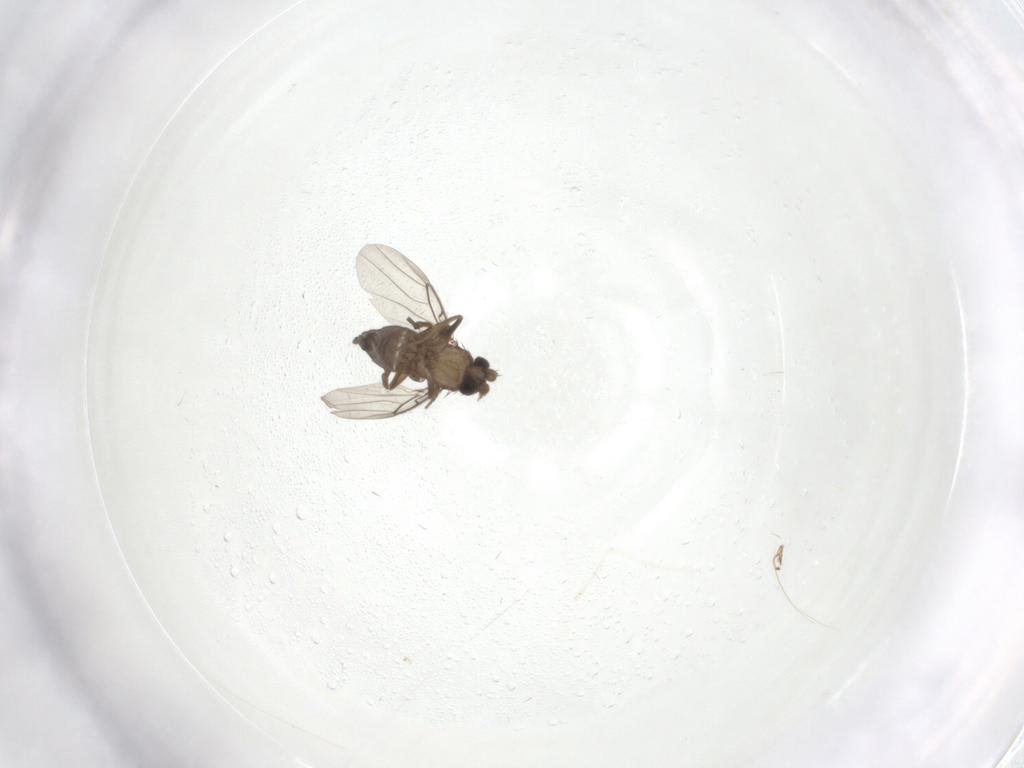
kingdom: Animalia
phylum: Arthropoda
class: Insecta
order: Diptera
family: Phoridae
